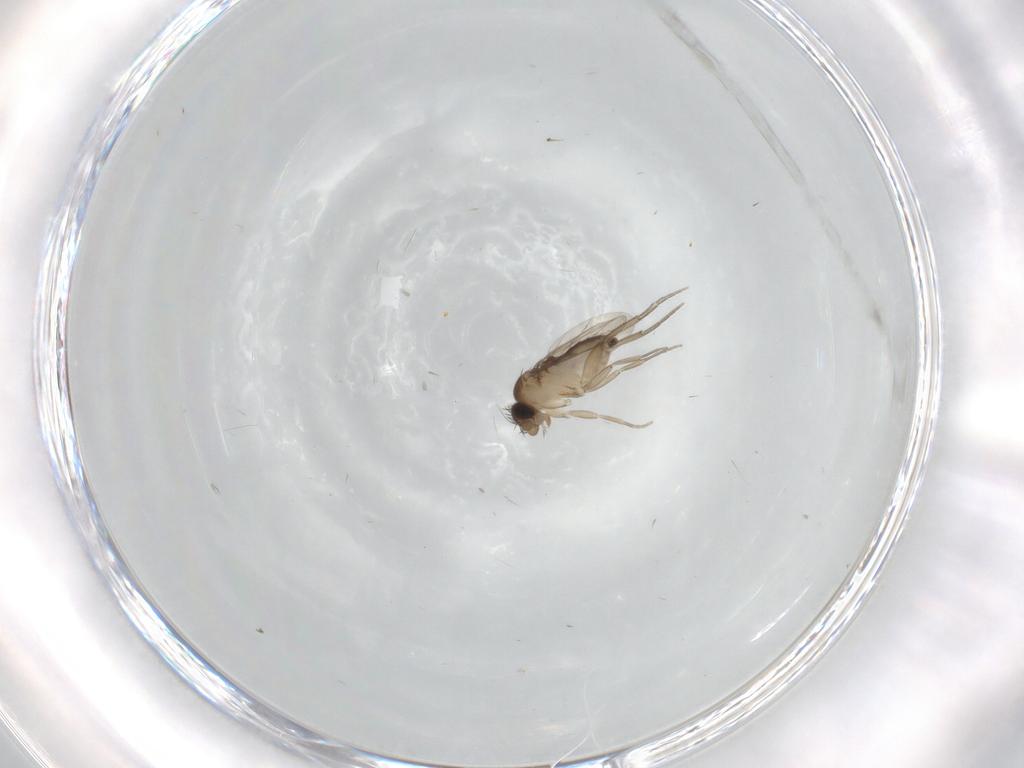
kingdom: Animalia
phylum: Arthropoda
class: Insecta
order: Diptera
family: Phoridae
